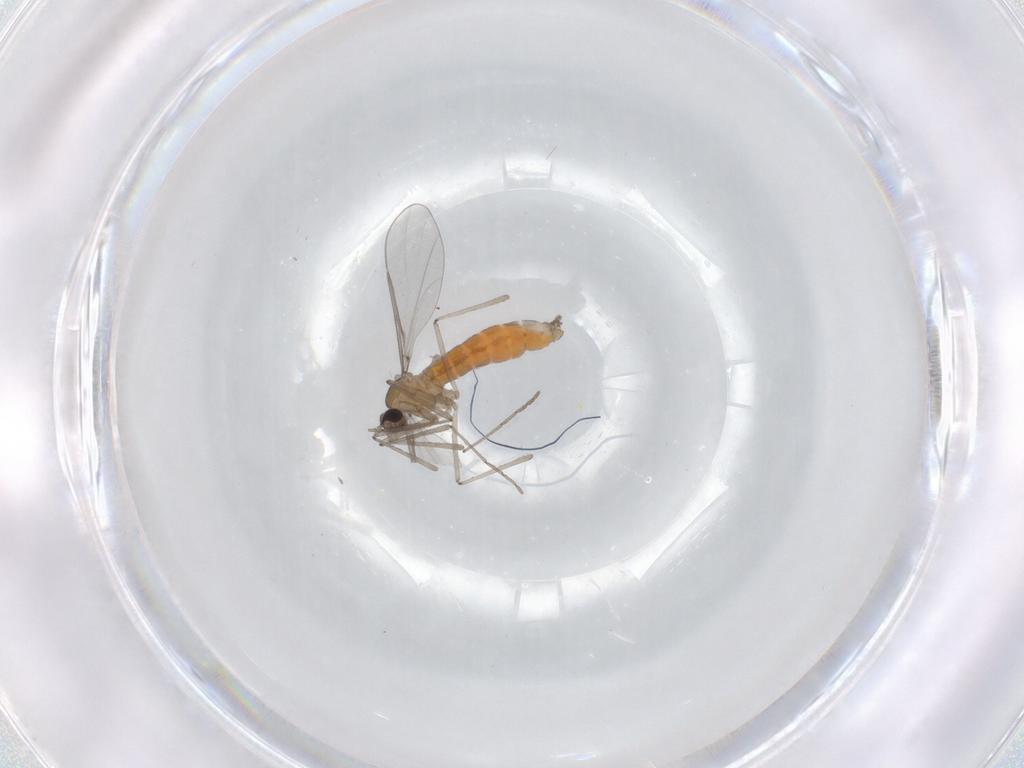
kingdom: Animalia
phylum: Arthropoda
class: Insecta
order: Diptera
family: Cecidomyiidae
